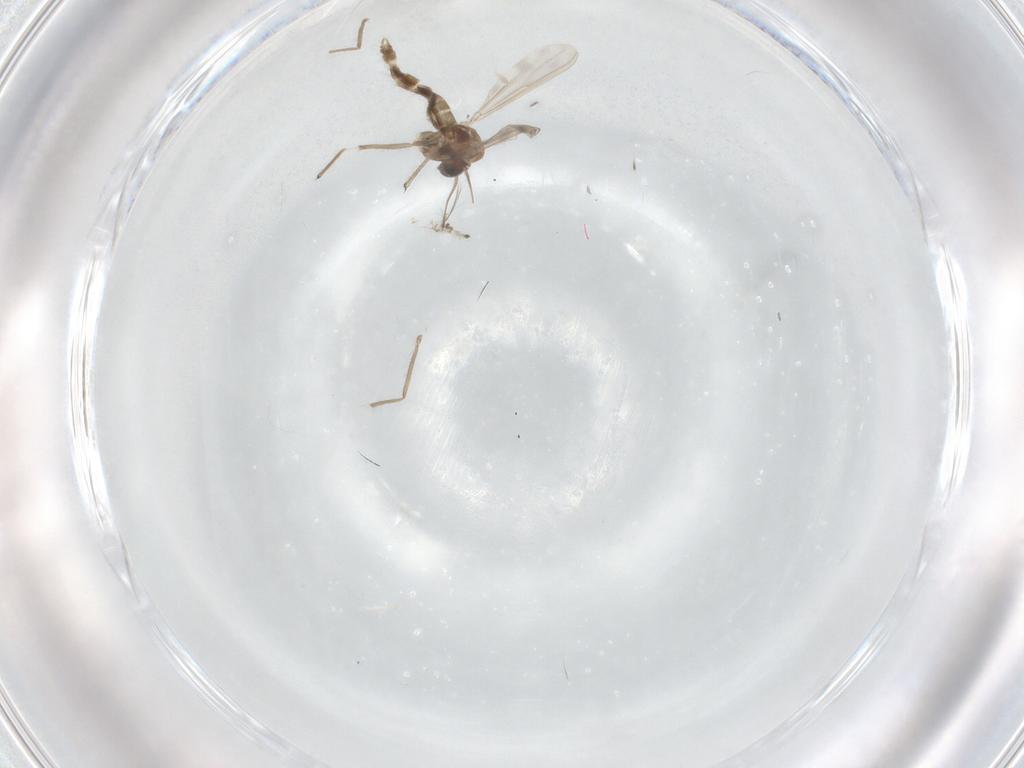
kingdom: Animalia
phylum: Arthropoda
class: Insecta
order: Diptera
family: Chironomidae
